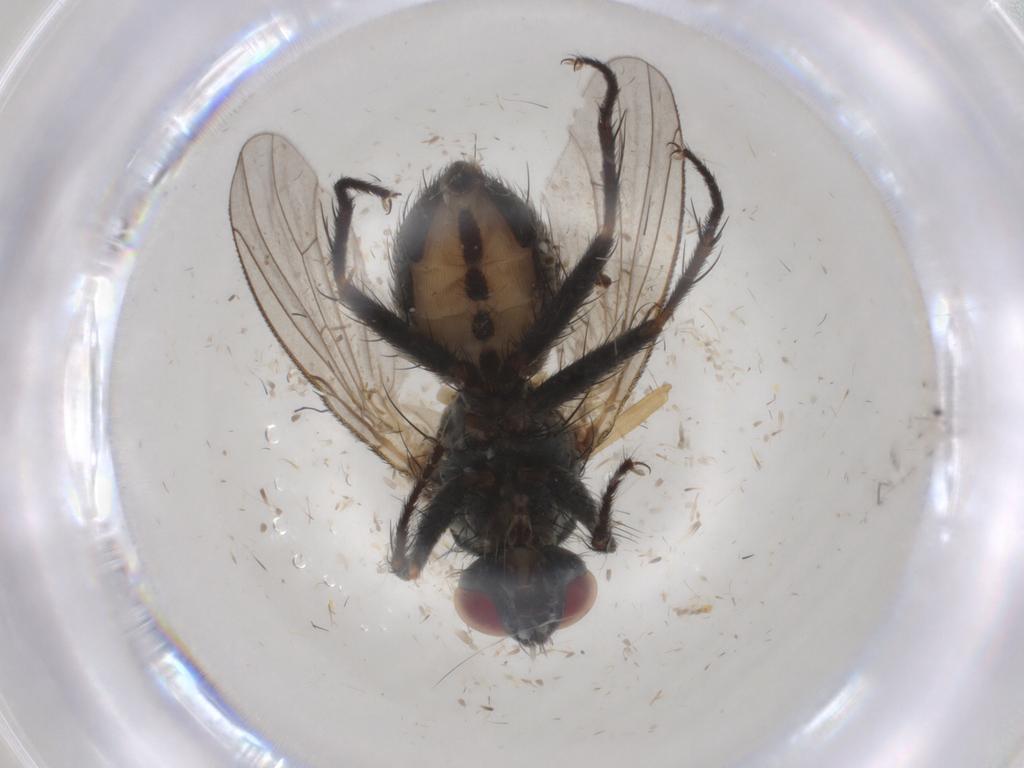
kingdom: Animalia
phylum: Arthropoda
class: Insecta
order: Diptera
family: Muscidae
